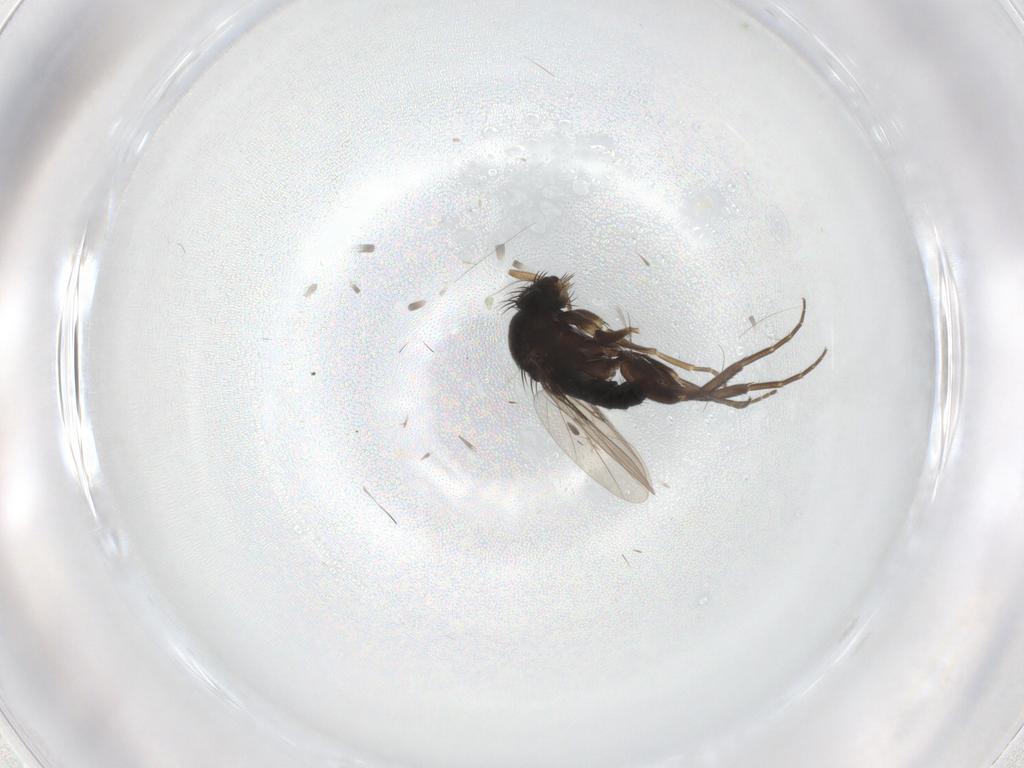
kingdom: Animalia
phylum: Arthropoda
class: Insecta
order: Diptera
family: Phoridae
